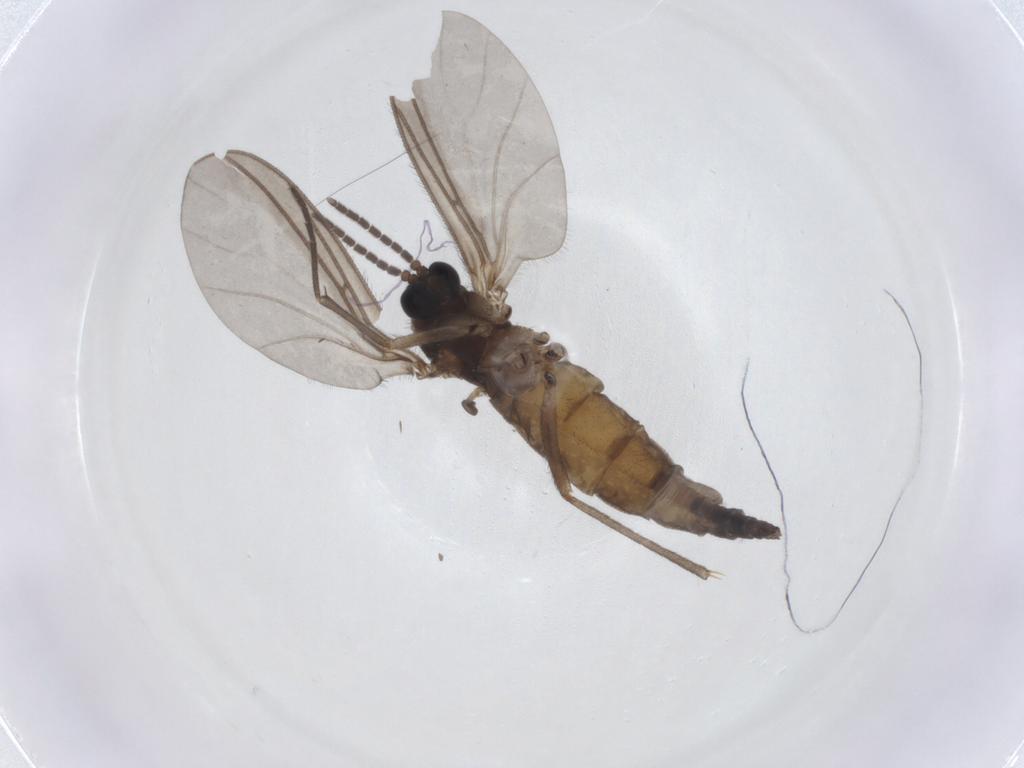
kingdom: Animalia
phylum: Arthropoda
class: Insecta
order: Diptera
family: Sciaridae
